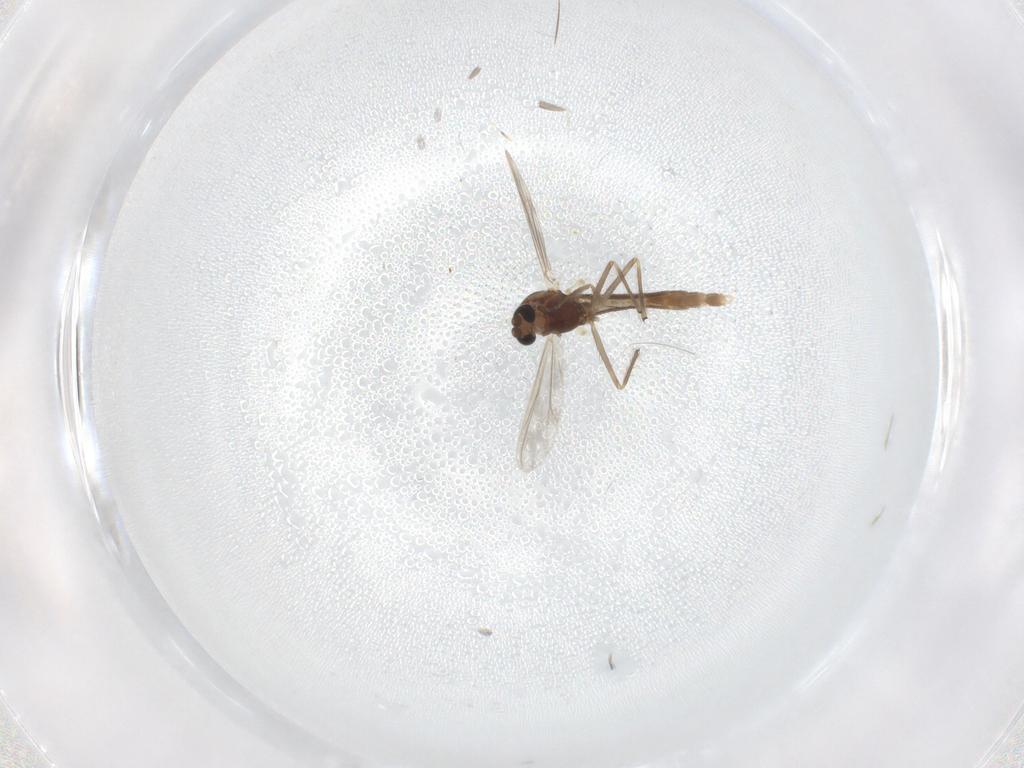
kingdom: Animalia
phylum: Arthropoda
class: Insecta
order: Diptera
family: Chironomidae
